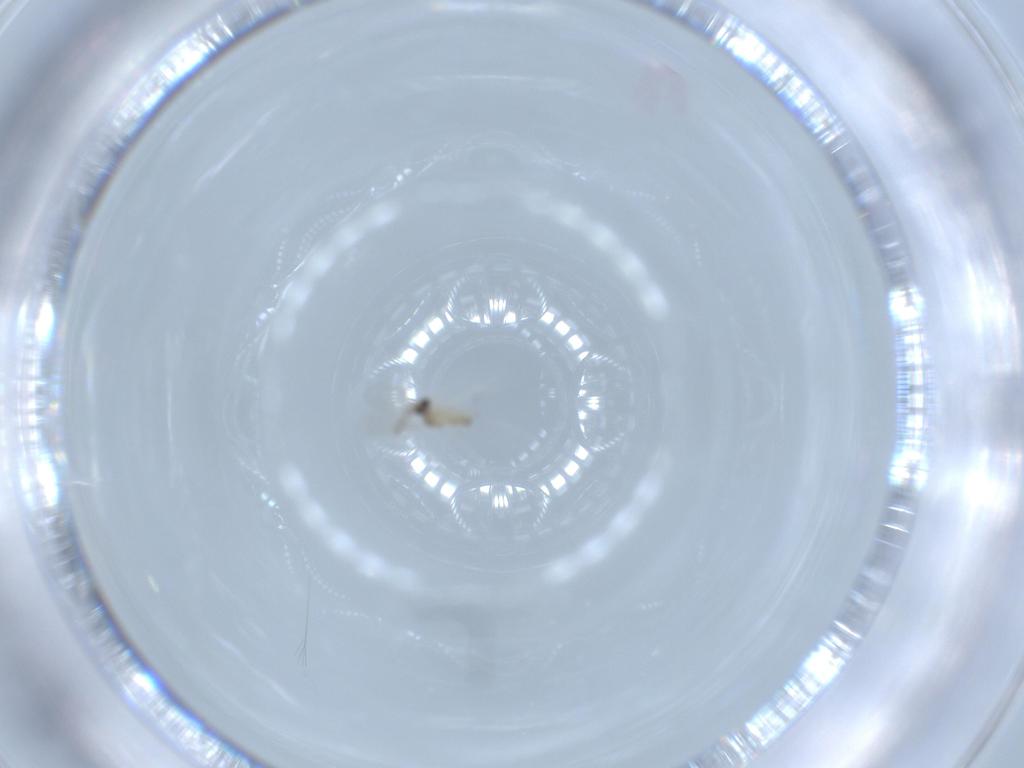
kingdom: Animalia
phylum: Arthropoda
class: Insecta
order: Diptera
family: Cecidomyiidae
